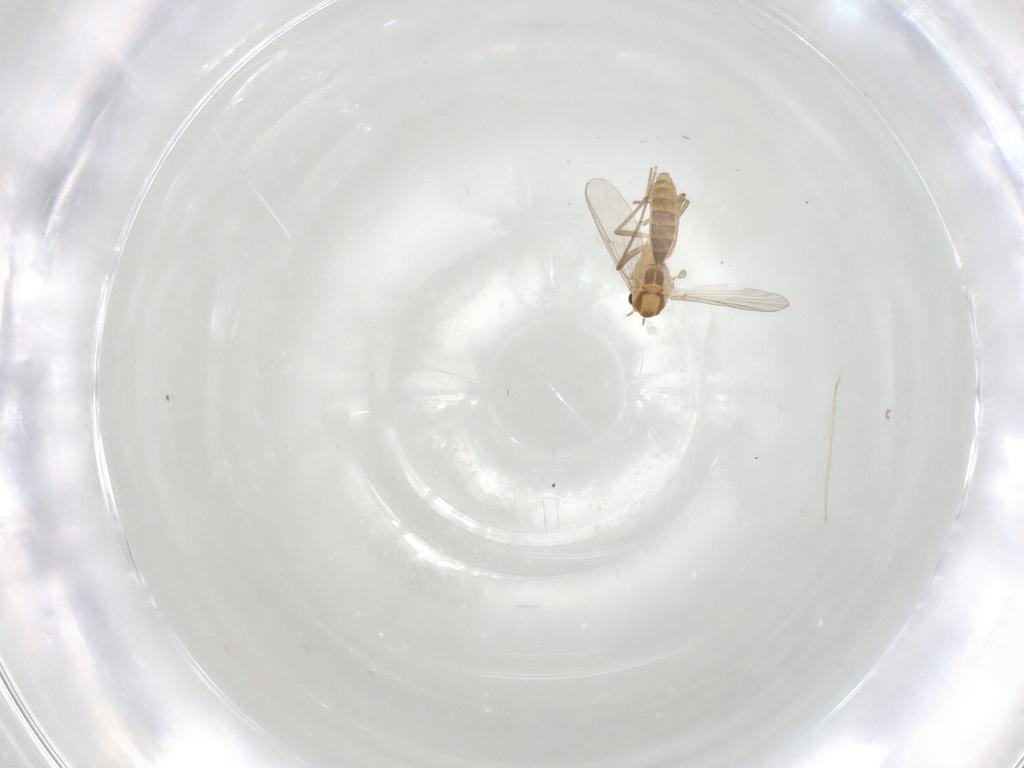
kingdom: Animalia
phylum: Arthropoda
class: Insecta
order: Diptera
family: Chironomidae
